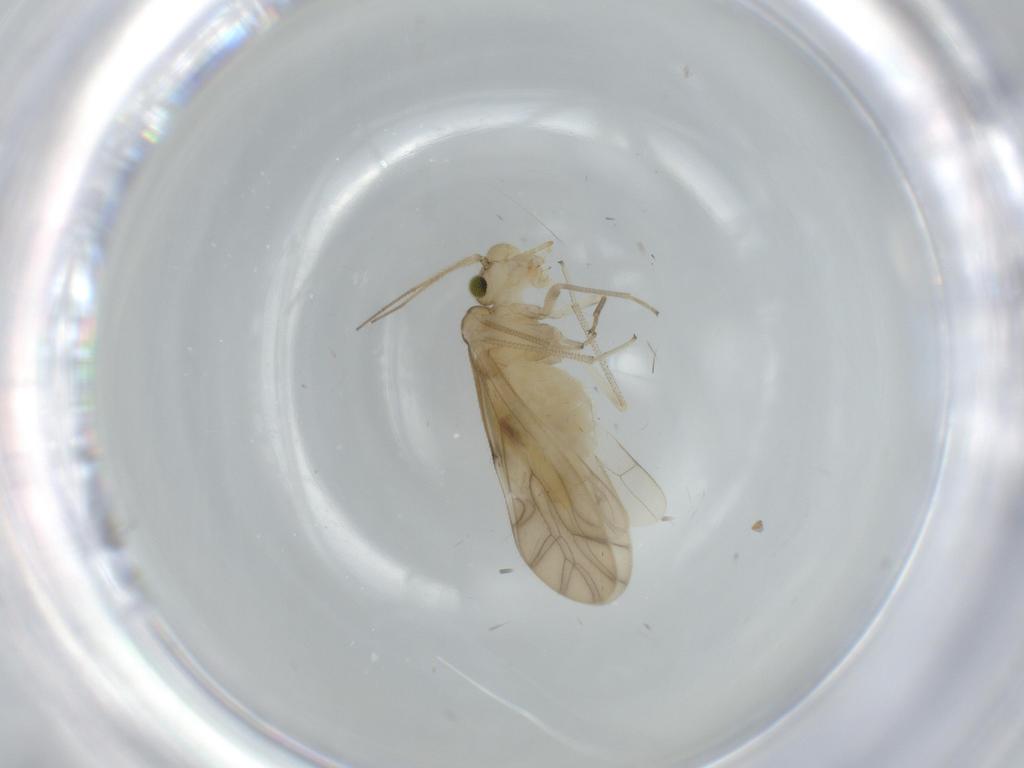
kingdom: Animalia
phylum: Arthropoda
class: Insecta
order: Psocodea
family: Caeciliusidae
